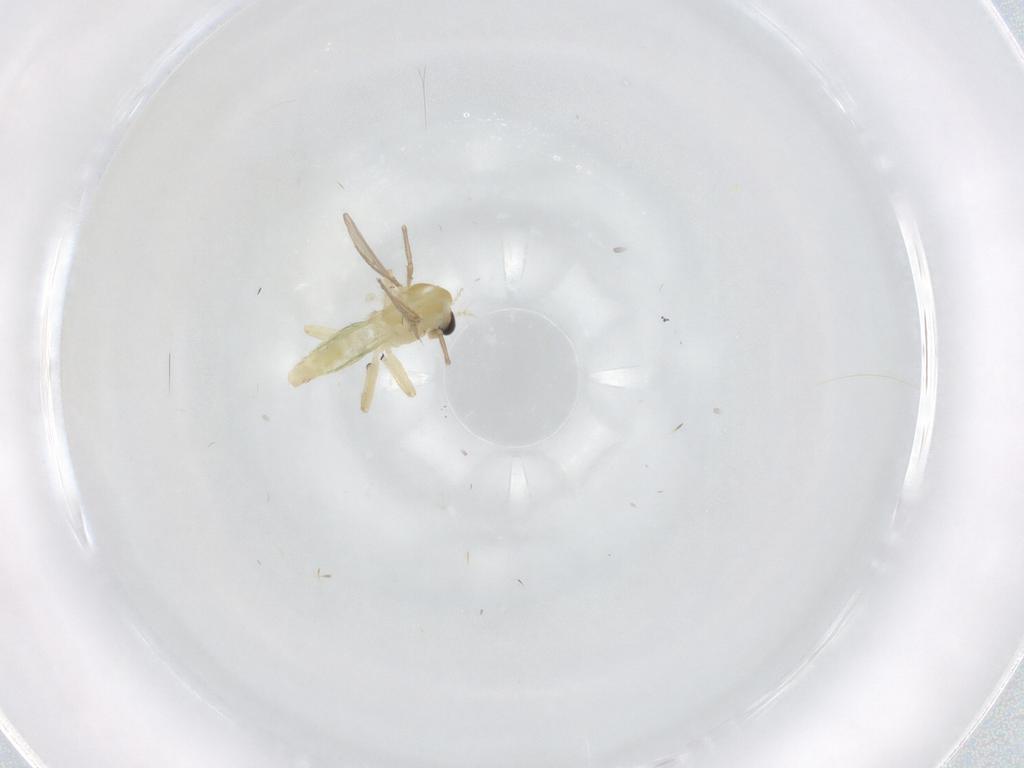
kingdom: Animalia
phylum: Arthropoda
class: Insecta
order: Diptera
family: Chironomidae
